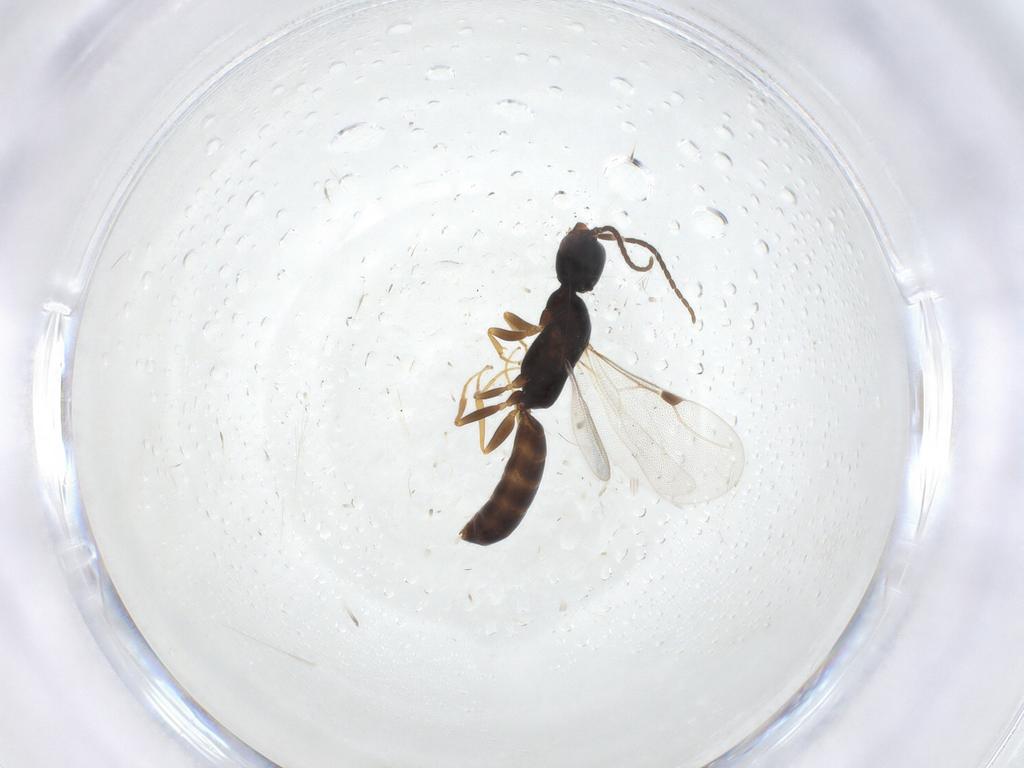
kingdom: Animalia
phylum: Arthropoda
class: Insecta
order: Hymenoptera
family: Bethylidae
